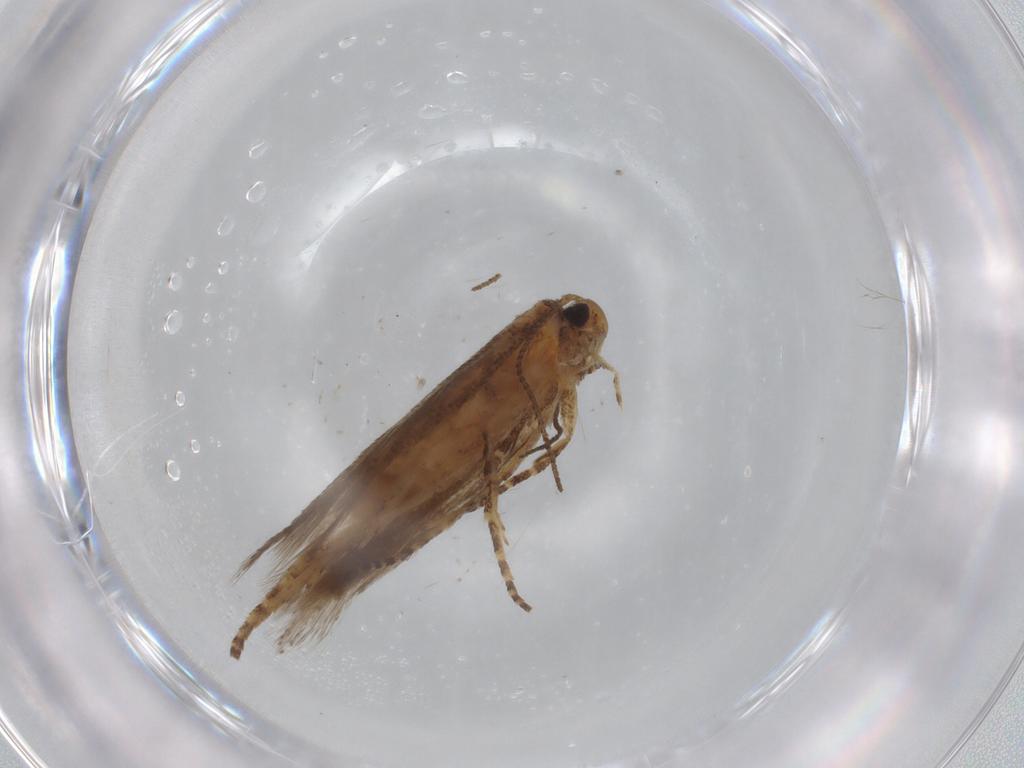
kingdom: Animalia
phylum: Arthropoda
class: Insecta
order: Lepidoptera
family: Gelechiidae
